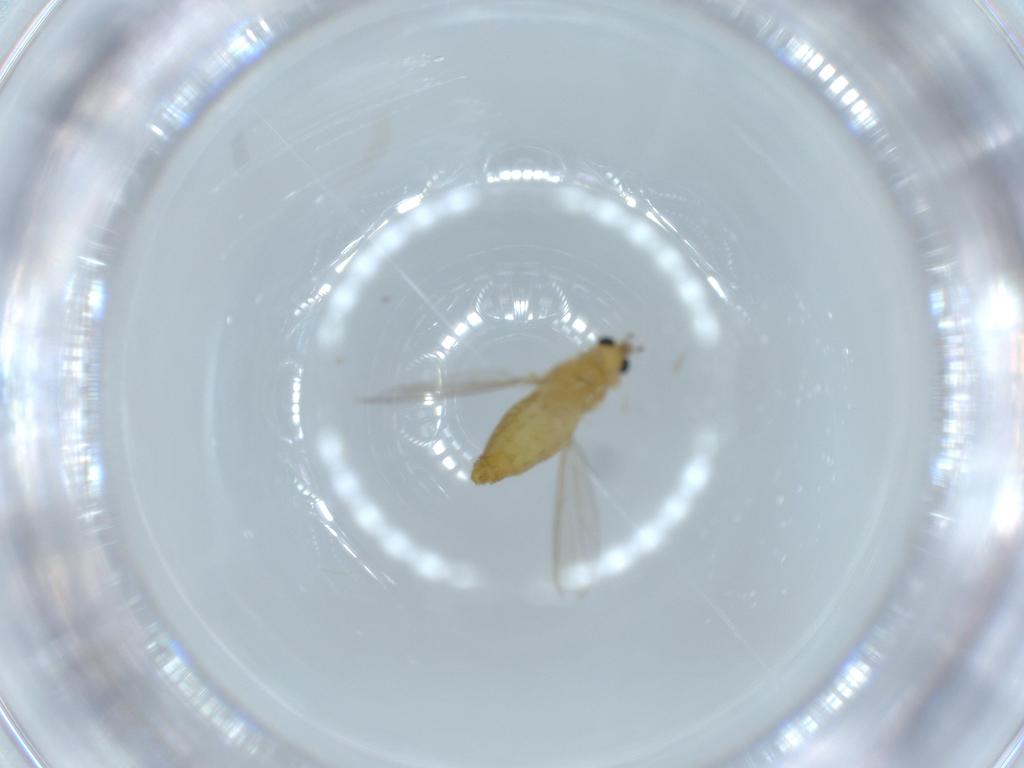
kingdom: Animalia
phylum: Arthropoda
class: Insecta
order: Diptera
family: Chironomidae
